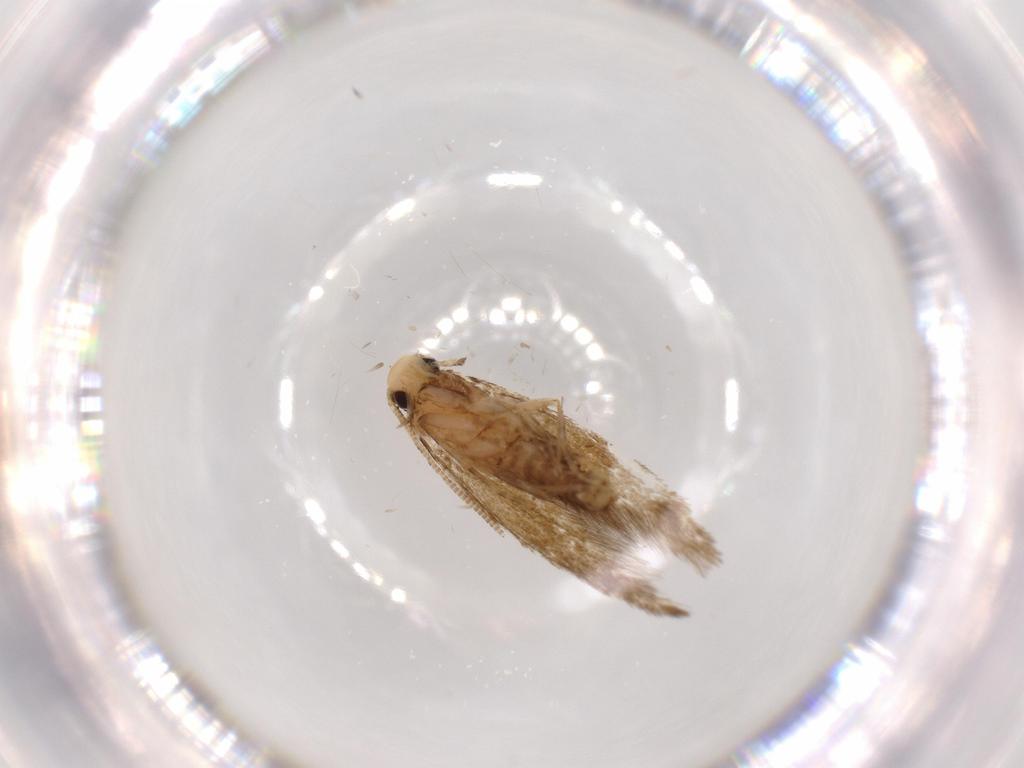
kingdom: Animalia
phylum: Arthropoda
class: Insecta
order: Lepidoptera
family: Tineidae
